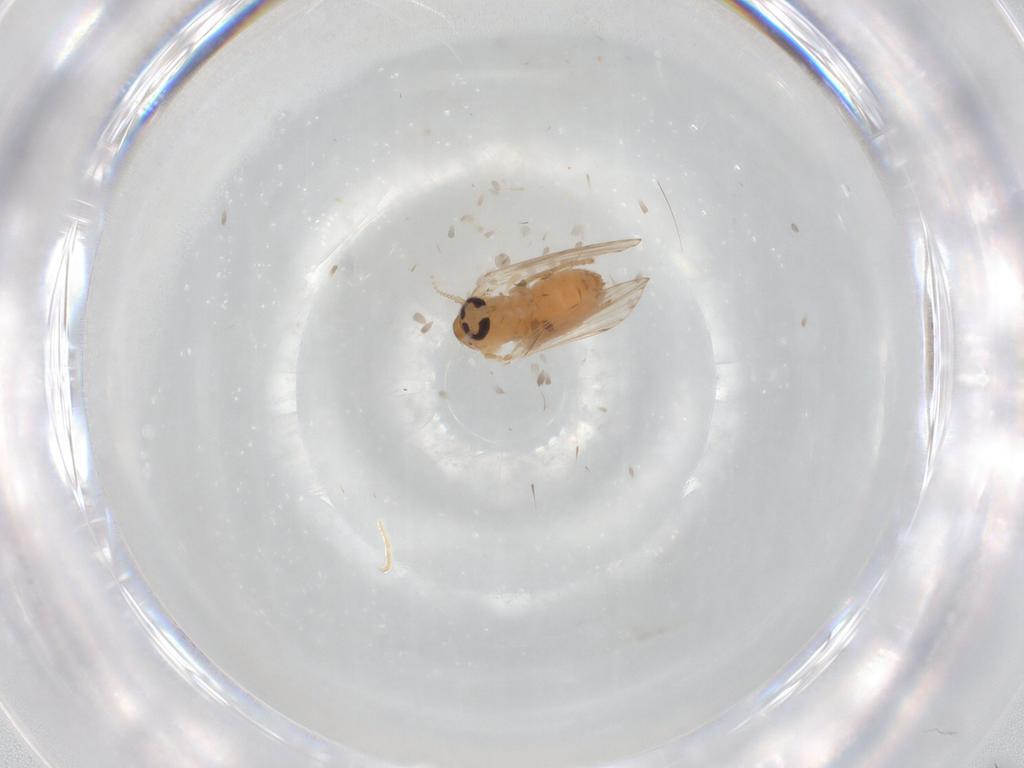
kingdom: Animalia
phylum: Arthropoda
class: Insecta
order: Diptera
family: Psychodidae
